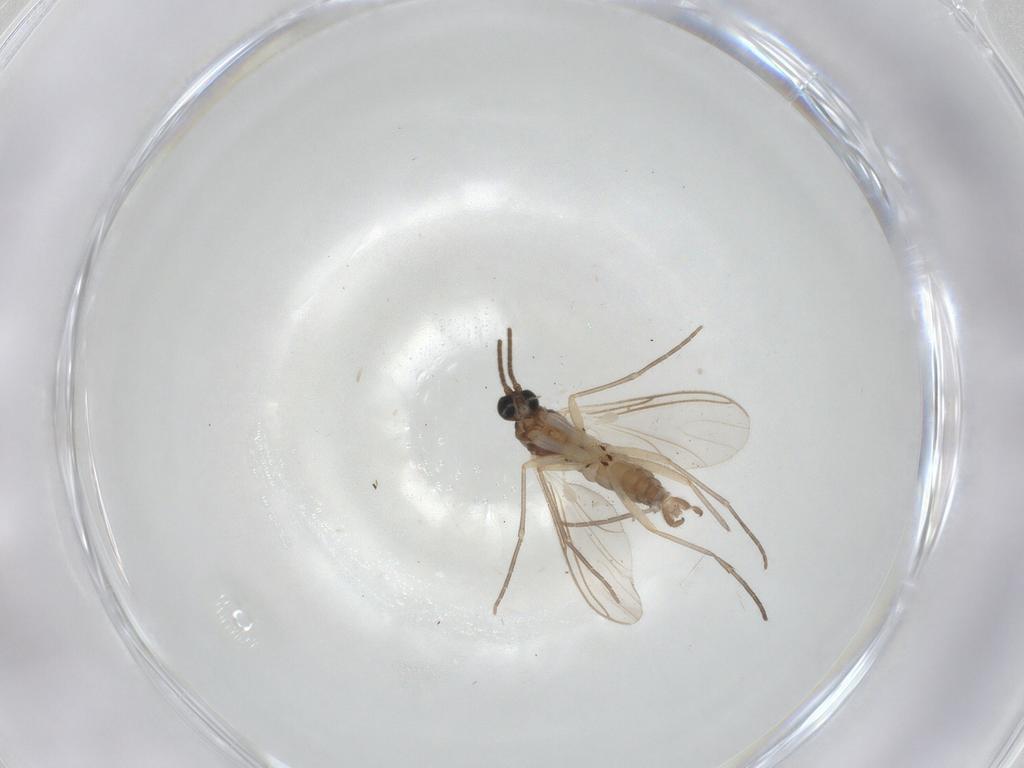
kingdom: Animalia
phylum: Arthropoda
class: Insecta
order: Diptera
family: Sciaridae
